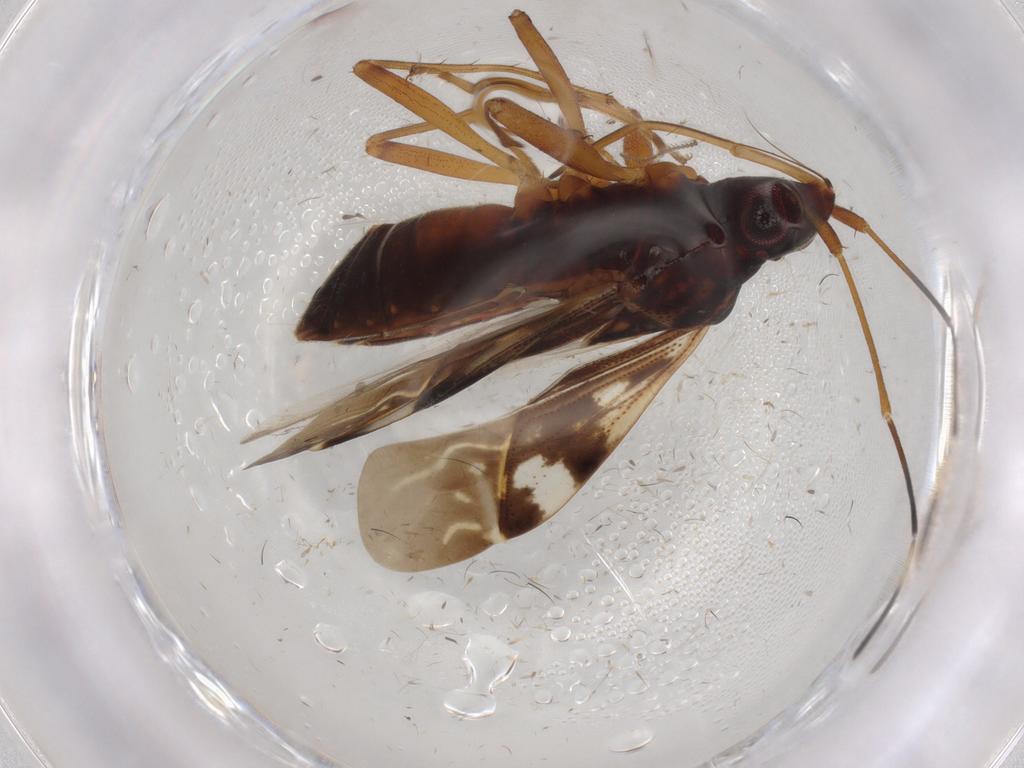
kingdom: Animalia
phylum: Arthropoda
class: Insecta
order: Hemiptera
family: Rhyparochromidae
